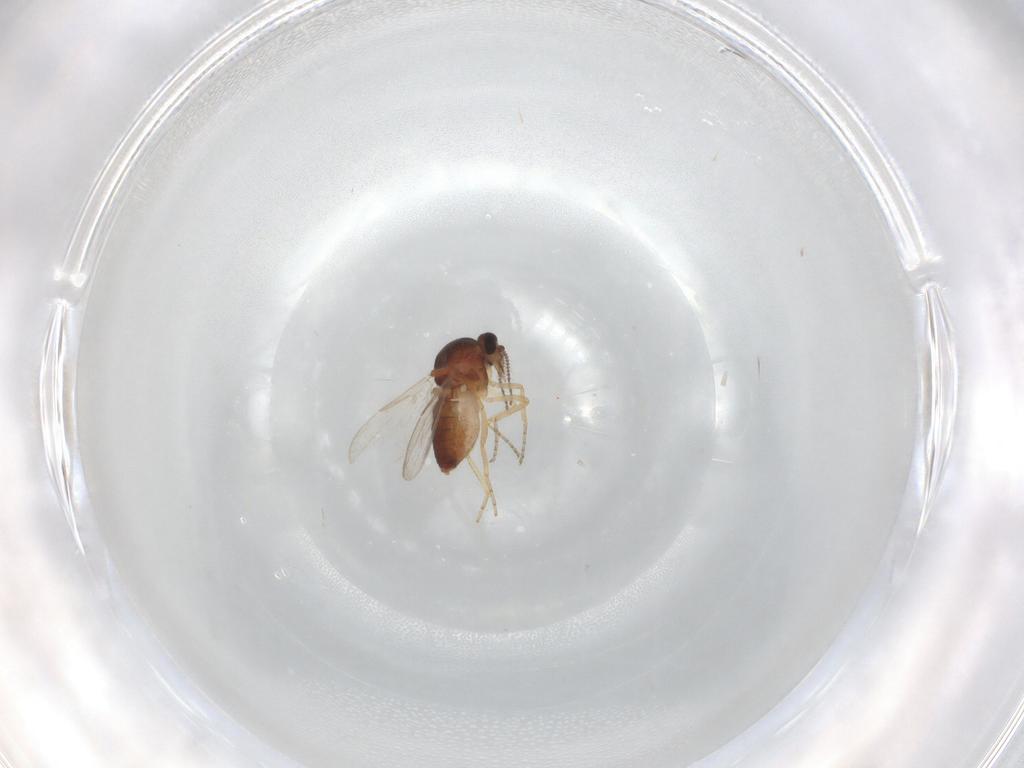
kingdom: Animalia
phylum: Arthropoda
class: Insecta
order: Diptera
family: Ceratopogonidae
